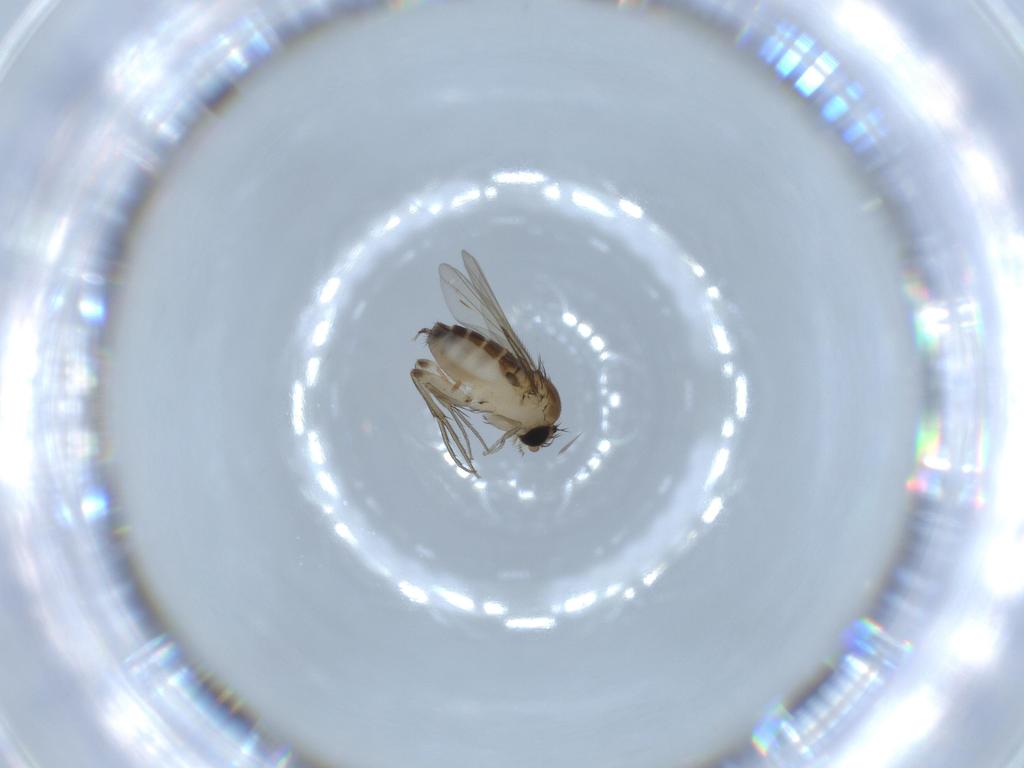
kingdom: Animalia
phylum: Arthropoda
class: Insecta
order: Diptera
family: Phoridae
